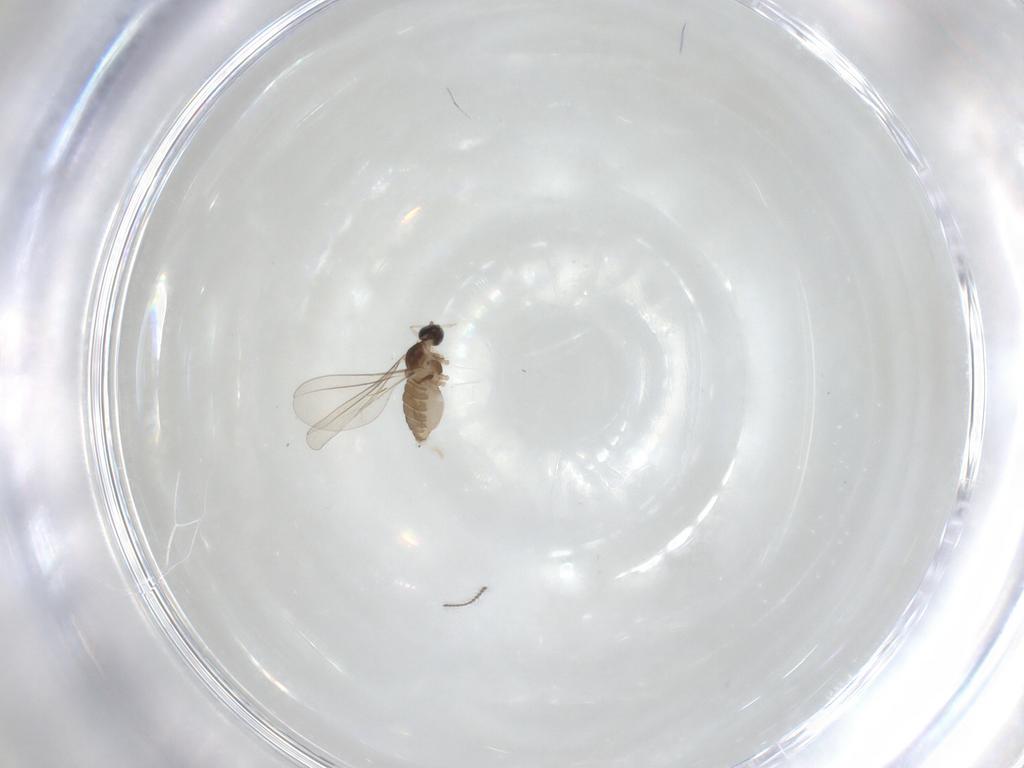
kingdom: Animalia
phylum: Arthropoda
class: Insecta
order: Diptera
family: Ceratopogonidae
